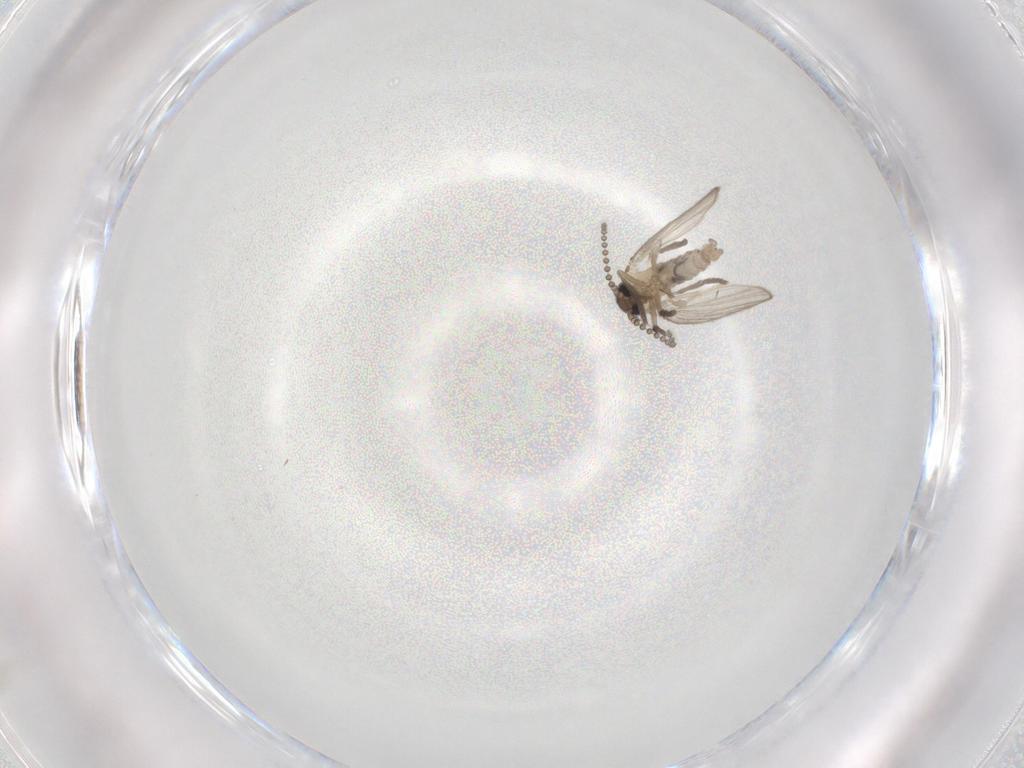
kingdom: Animalia
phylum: Arthropoda
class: Insecta
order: Diptera
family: Psychodidae
